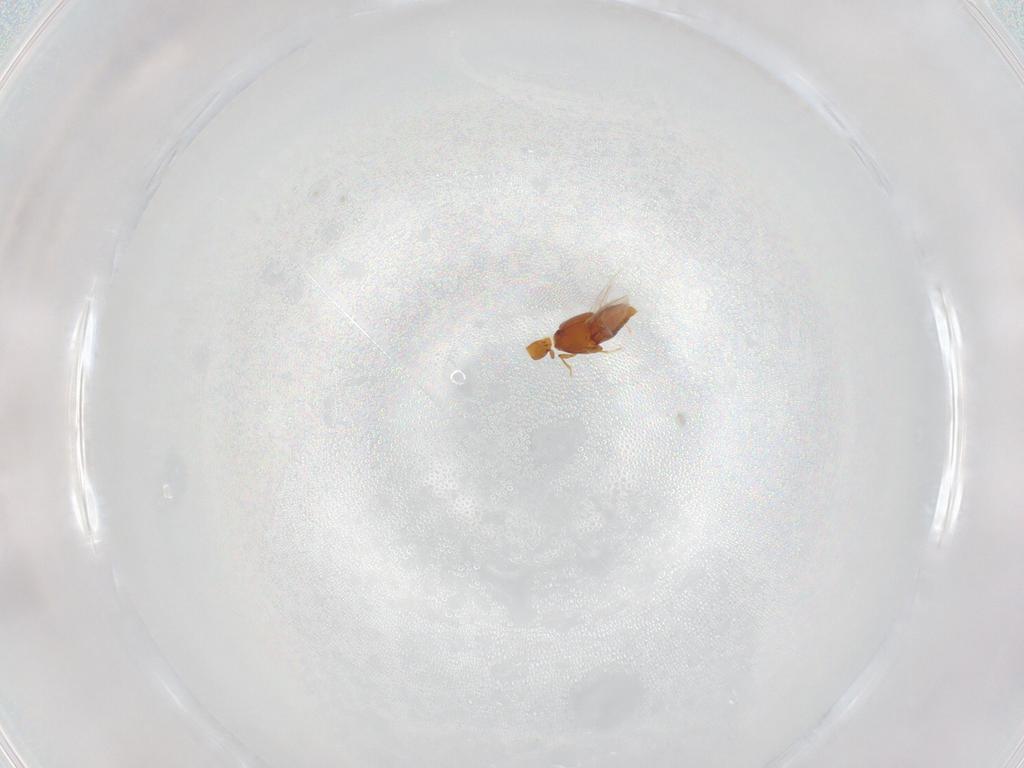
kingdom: Animalia
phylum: Arthropoda
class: Insecta
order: Coleoptera
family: Staphylinidae
